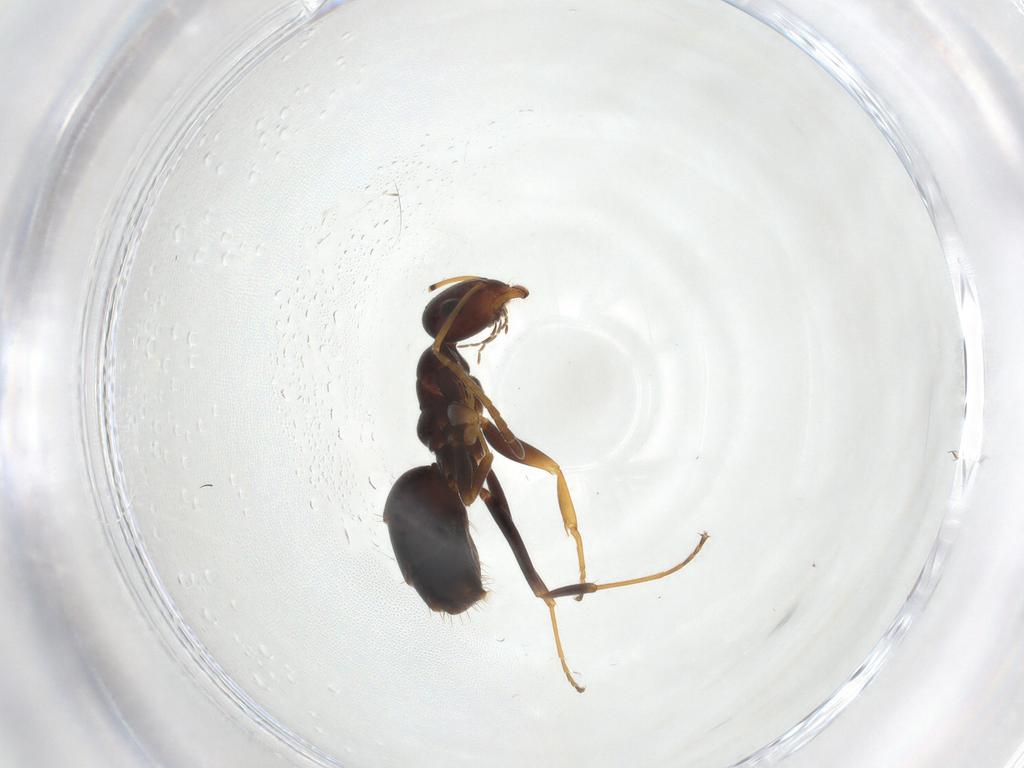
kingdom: Animalia
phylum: Arthropoda
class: Insecta
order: Hymenoptera
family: Formicidae
